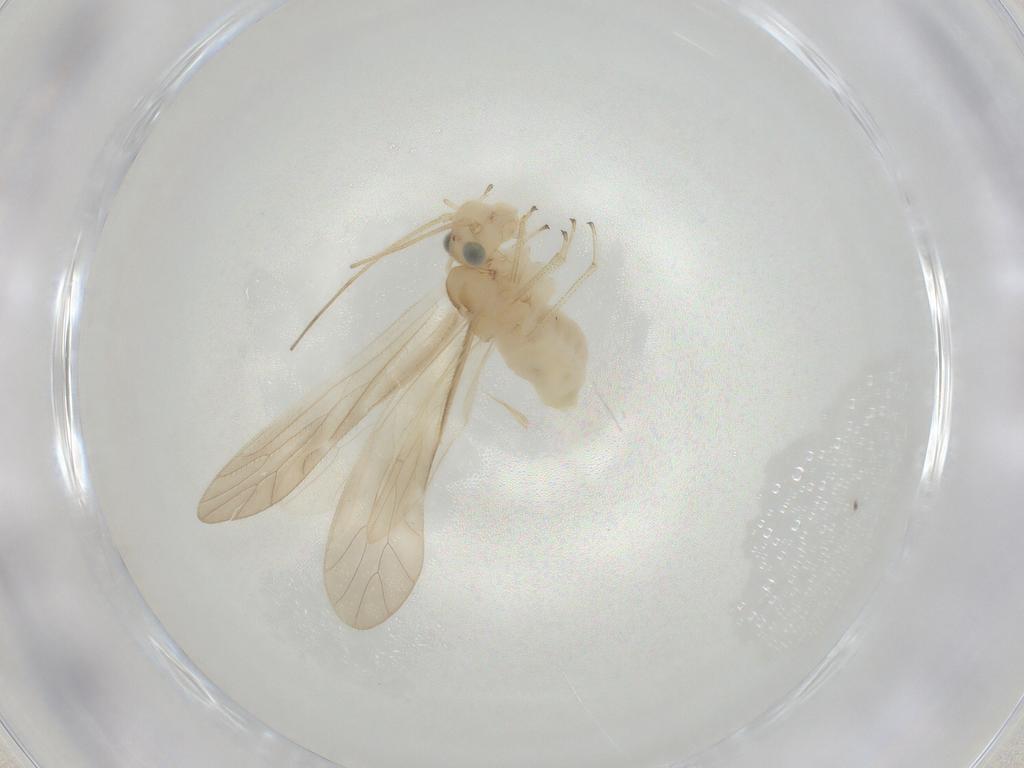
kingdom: Animalia
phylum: Arthropoda
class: Insecta
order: Psocodea
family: Caeciliusidae
